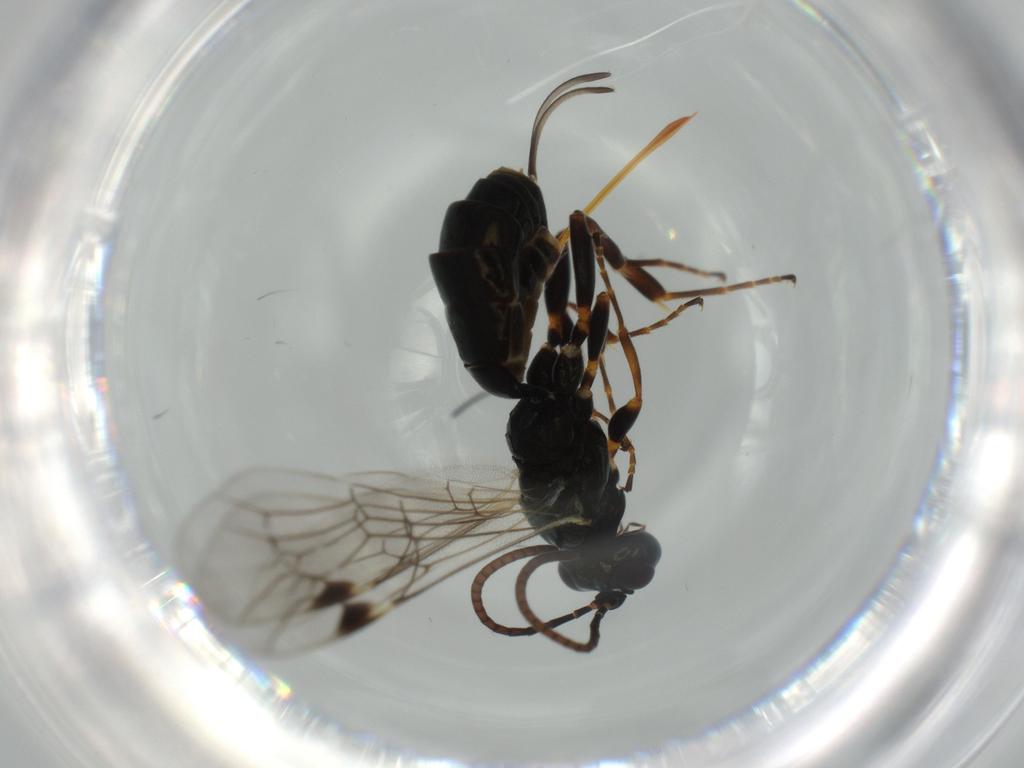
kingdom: Animalia
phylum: Arthropoda
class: Insecta
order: Hymenoptera
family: Ichneumonidae
